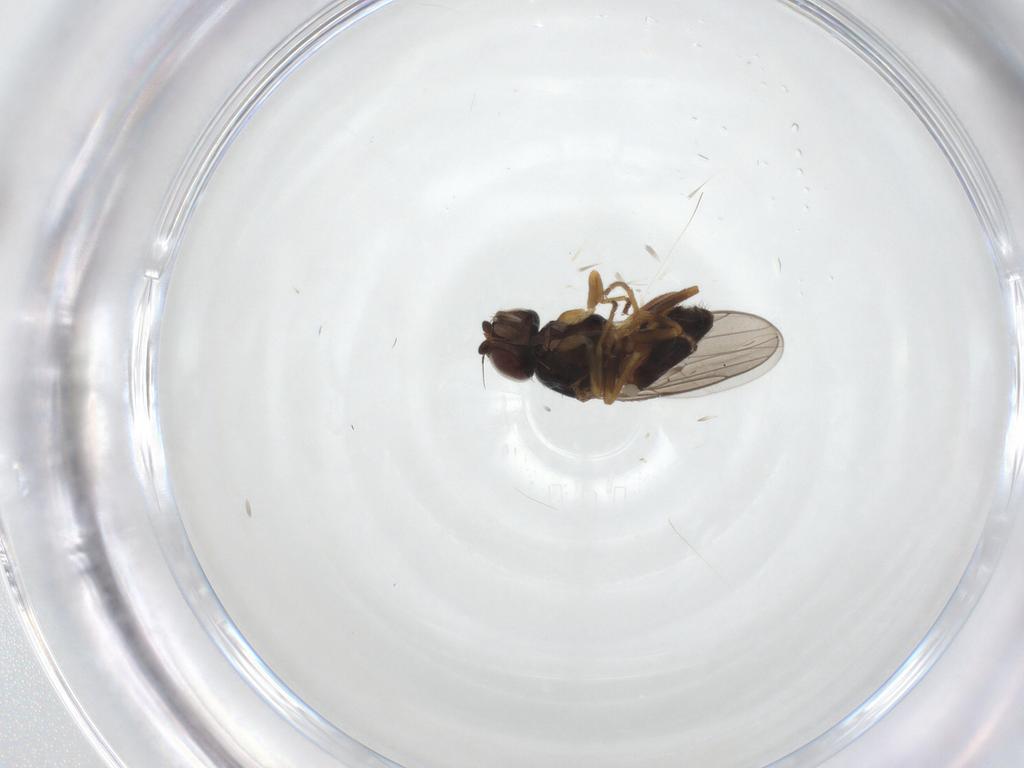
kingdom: Animalia
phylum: Arthropoda
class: Insecta
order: Diptera
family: Chloropidae
